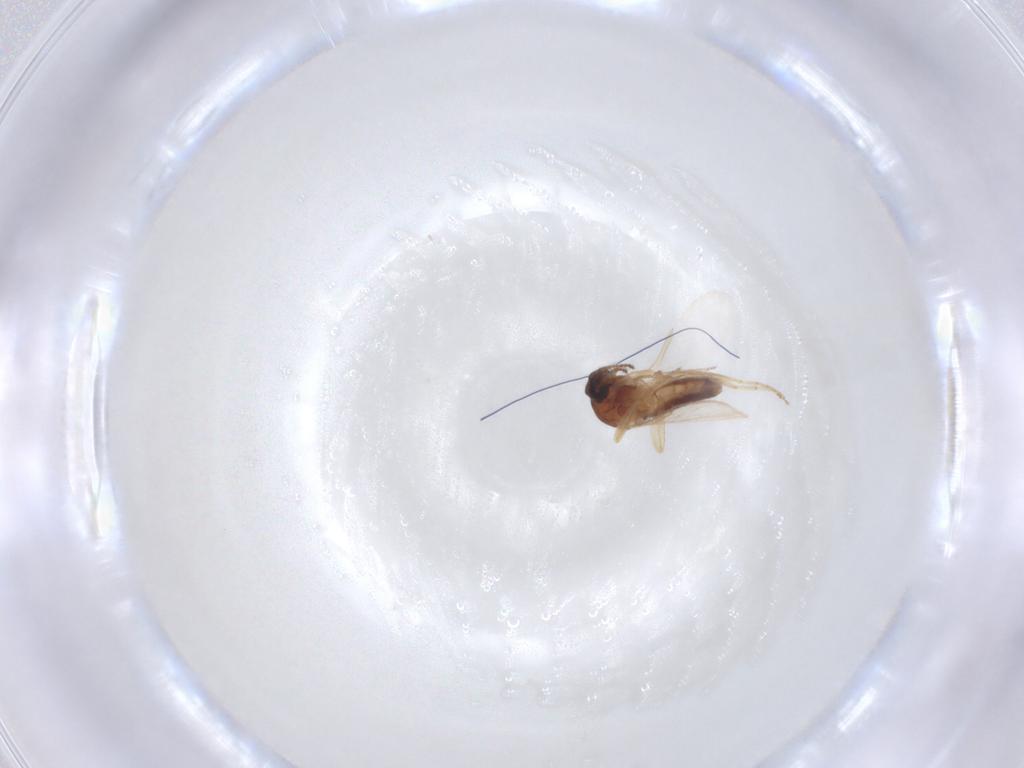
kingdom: Animalia
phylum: Arthropoda
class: Insecta
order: Diptera
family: Ceratopogonidae
